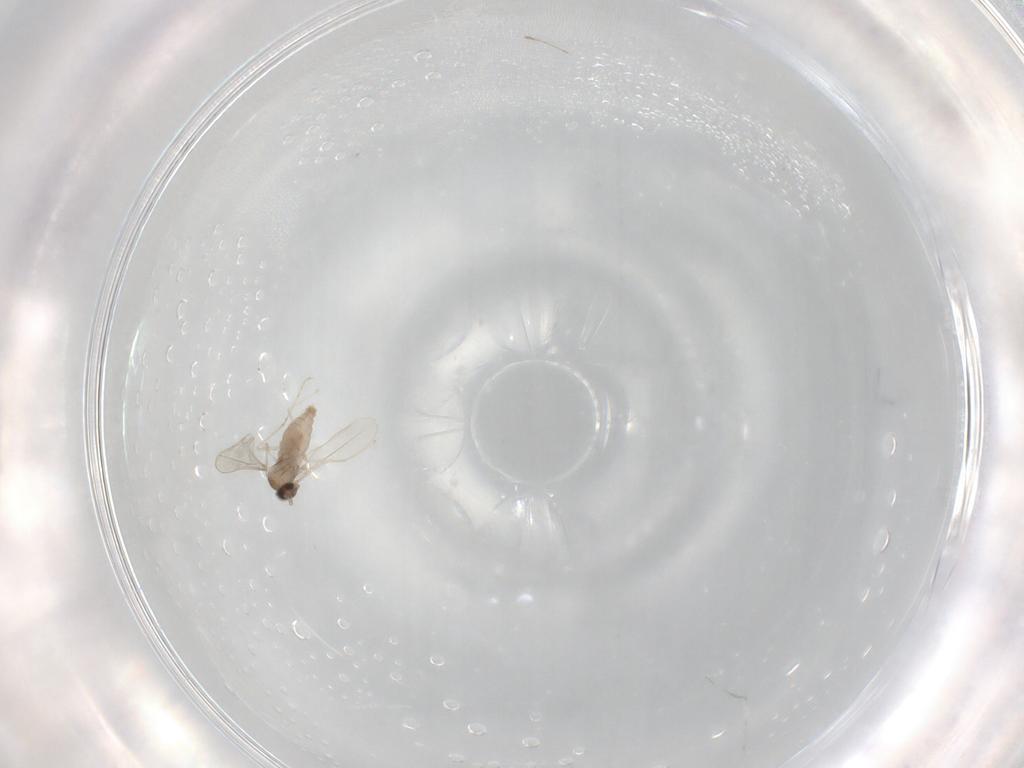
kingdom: Animalia
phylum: Arthropoda
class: Insecta
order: Diptera
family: Cecidomyiidae
